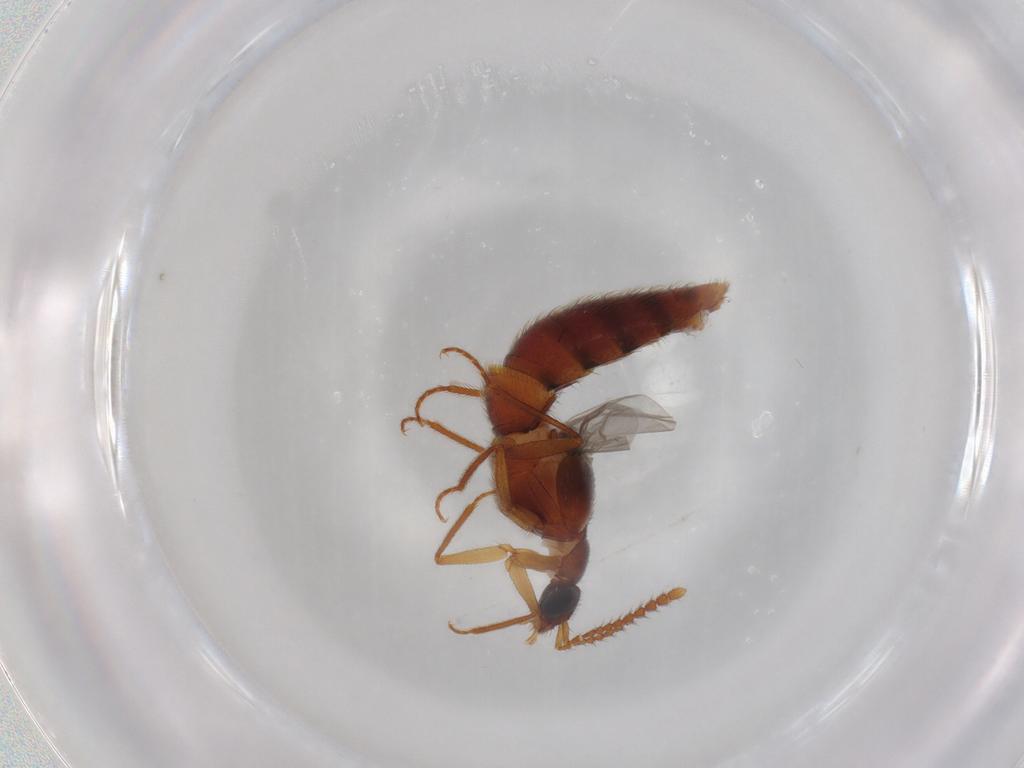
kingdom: Animalia
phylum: Arthropoda
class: Insecta
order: Coleoptera
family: Staphylinidae
